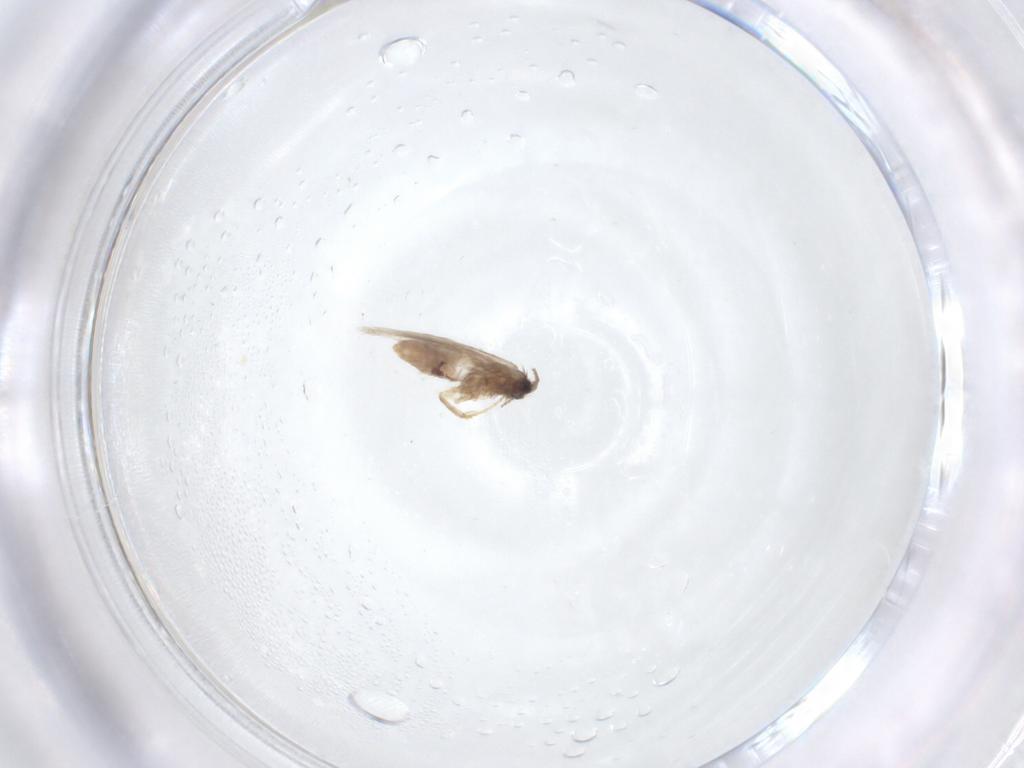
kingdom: Animalia
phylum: Arthropoda
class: Insecta
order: Lepidoptera
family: Nepticulidae
